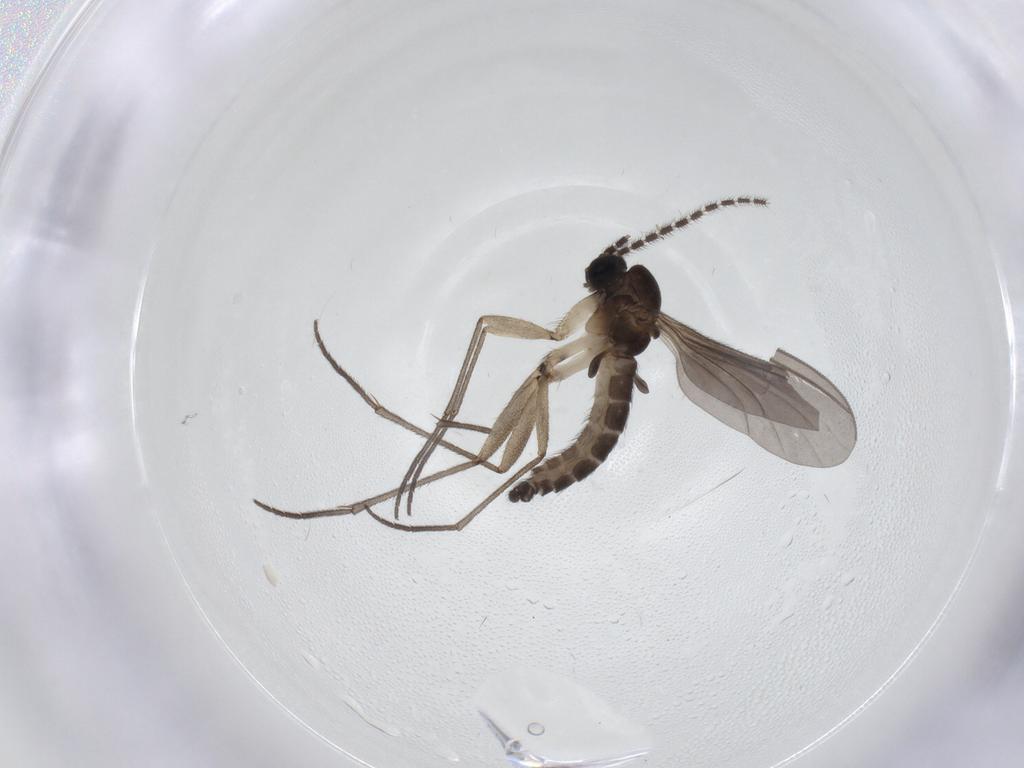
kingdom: Animalia
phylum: Arthropoda
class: Insecta
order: Diptera
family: Sciaridae
